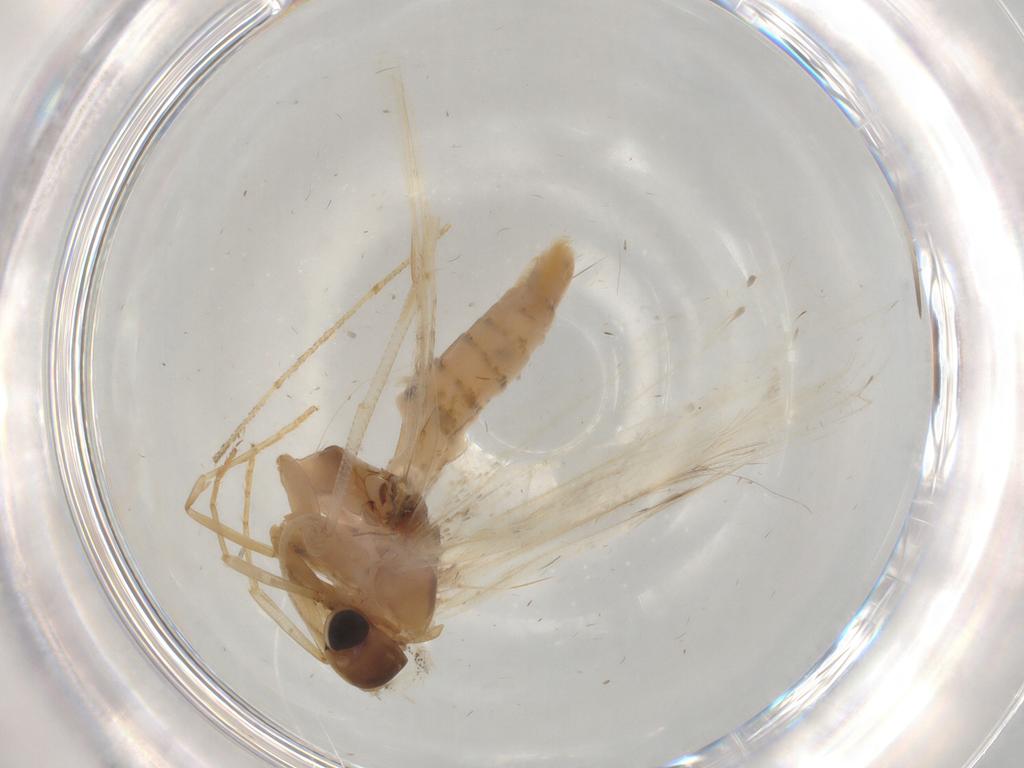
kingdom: Animalia
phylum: Arthropoda
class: Insecta
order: Lepidoptera
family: Gelechiidae
